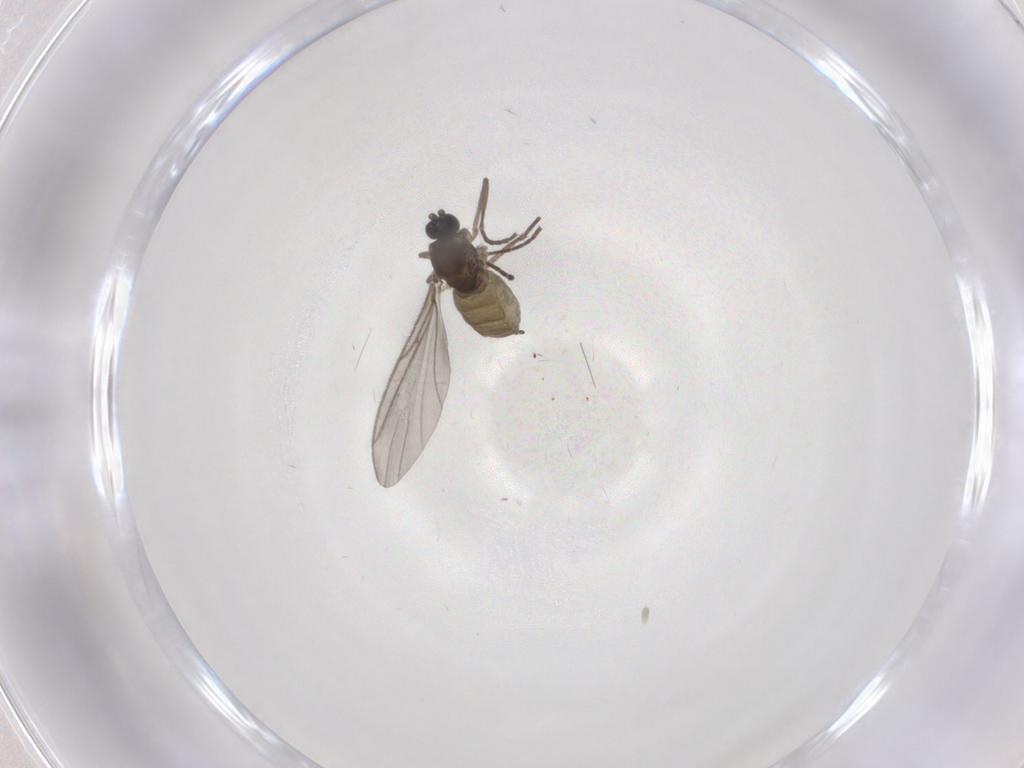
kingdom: Animalia
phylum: Arthropoda
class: Insecta
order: Diptera
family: Sciaridae
